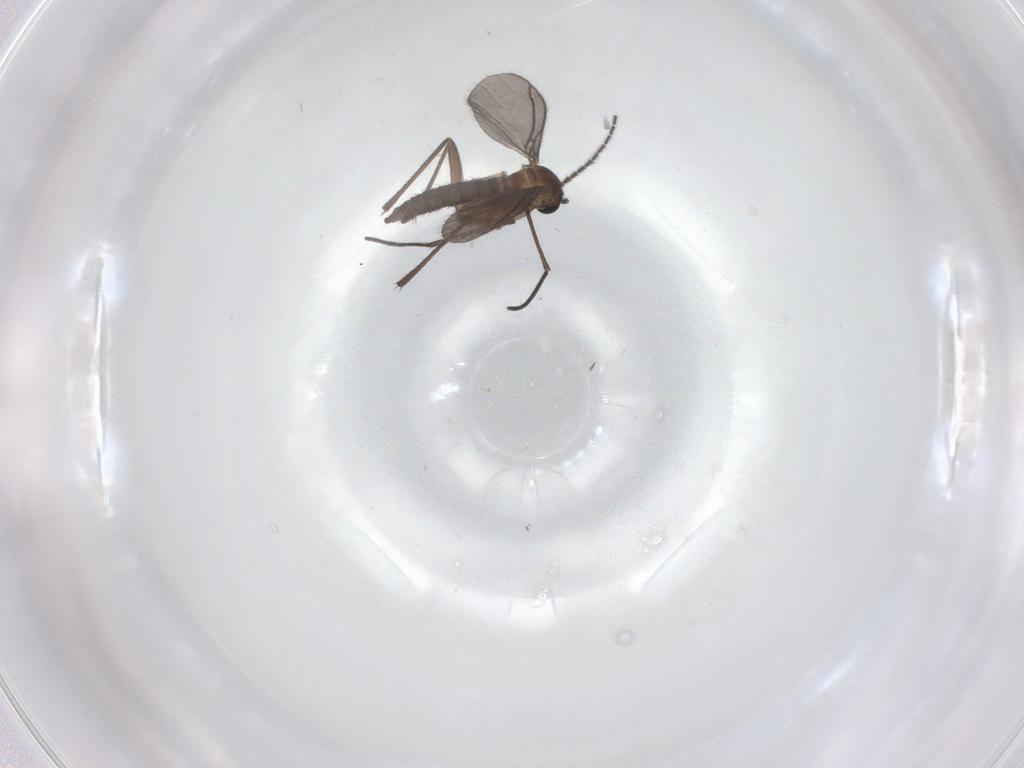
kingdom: Animalia
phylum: Arthropoda
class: Insecta
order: Diptera
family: Sciaridae
